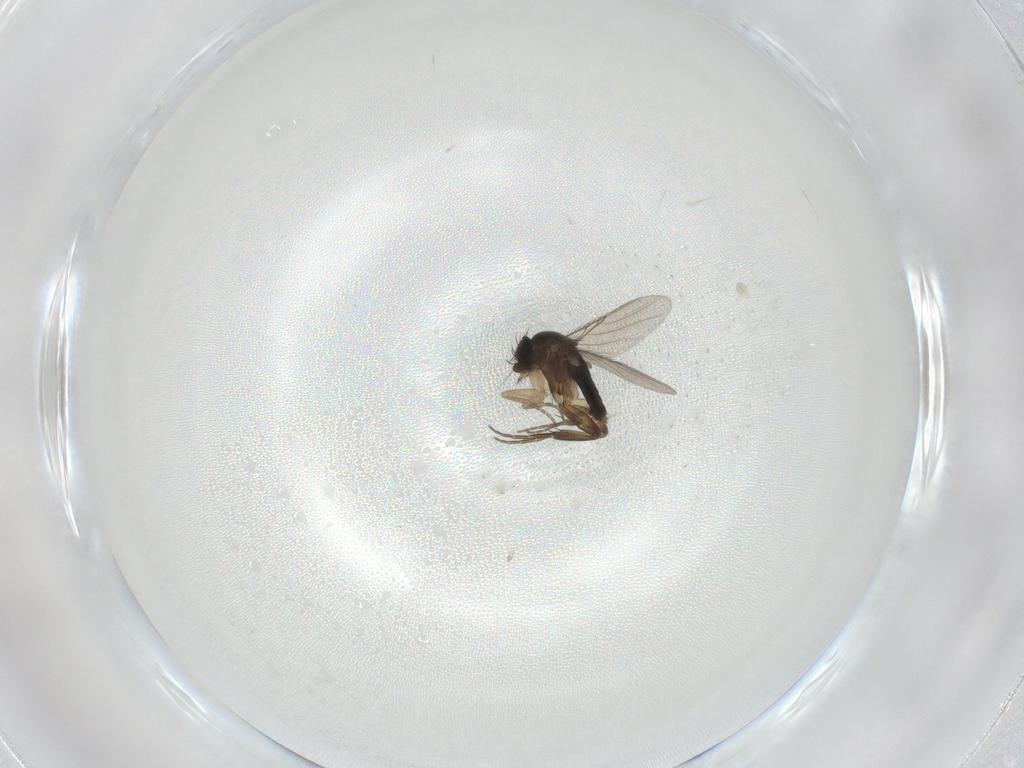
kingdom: Animalia
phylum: Arthropoda
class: Insecta
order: Diptera
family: Phoridae
